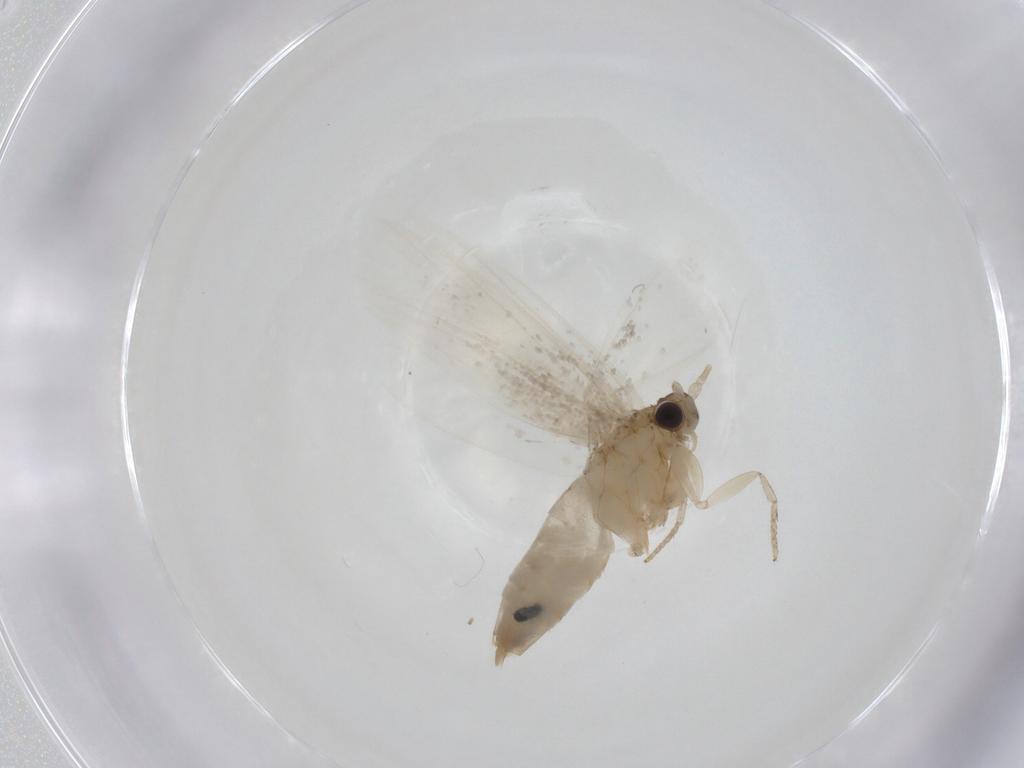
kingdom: Animalia
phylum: Arthropoda
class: Insecta
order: Lepidoptera
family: Tineidae
